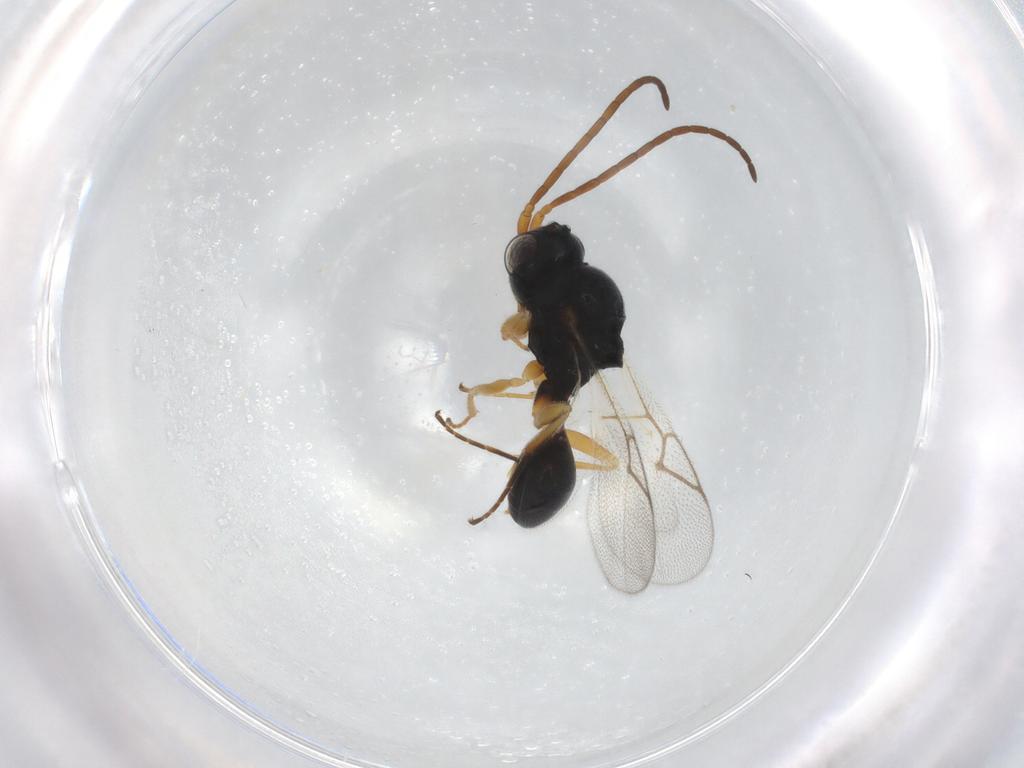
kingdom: Animalia
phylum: Arthropoda
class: Insecta
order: Hymenoptera
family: Figitidae
